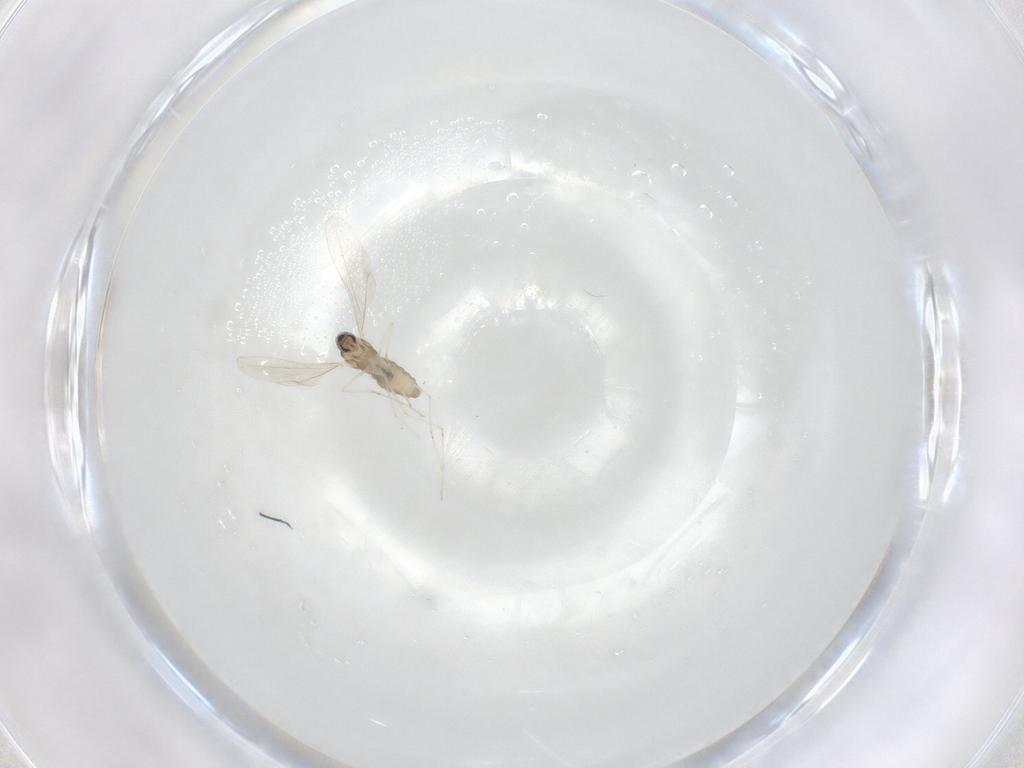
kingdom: Animalia
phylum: Arthropoda
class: Insecta
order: Diptera
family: Cecidomyiidae
